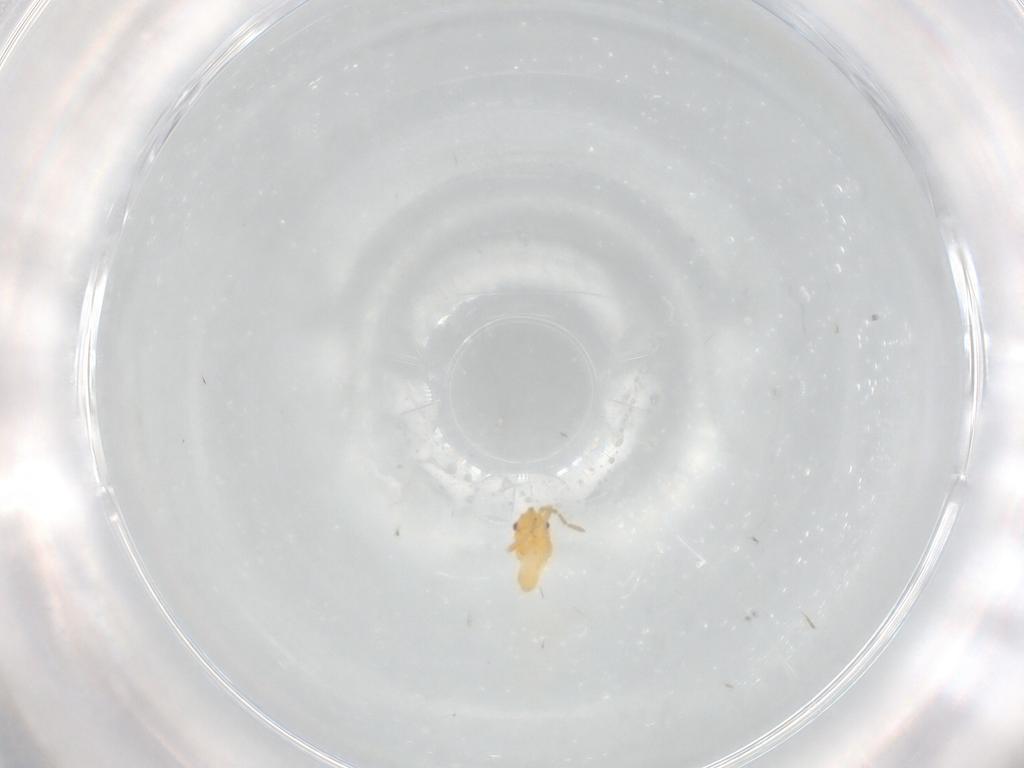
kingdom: Animalia
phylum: Arthropoda
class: Insecta
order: Hemiptera
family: Miridae
